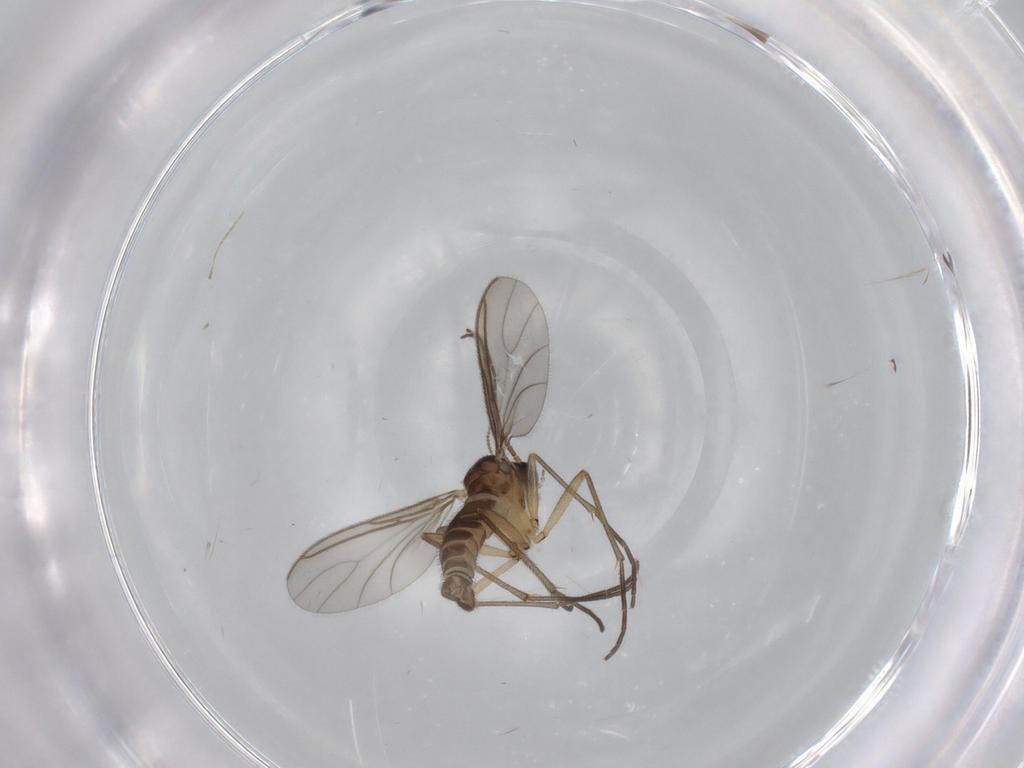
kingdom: Animalia
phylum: Arthropoda
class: Insecta
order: Diptera
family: Sciaridae
